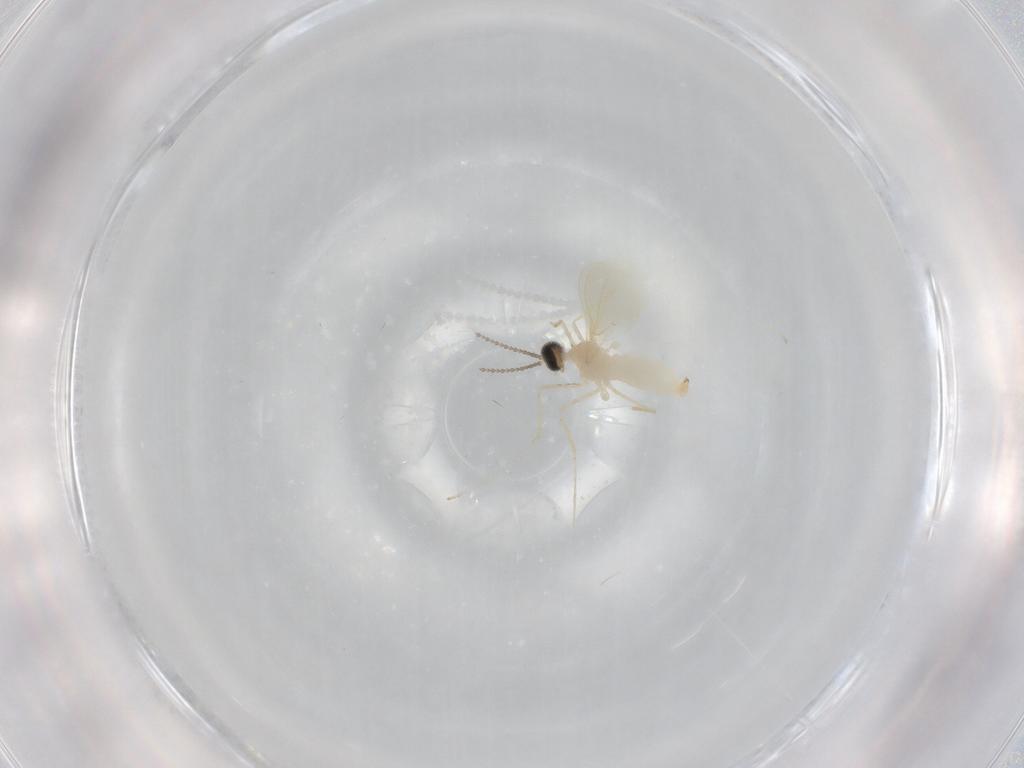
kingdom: Animalia
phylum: Arthropoda
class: Insecta
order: Diptera
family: Cecidomyiidae
